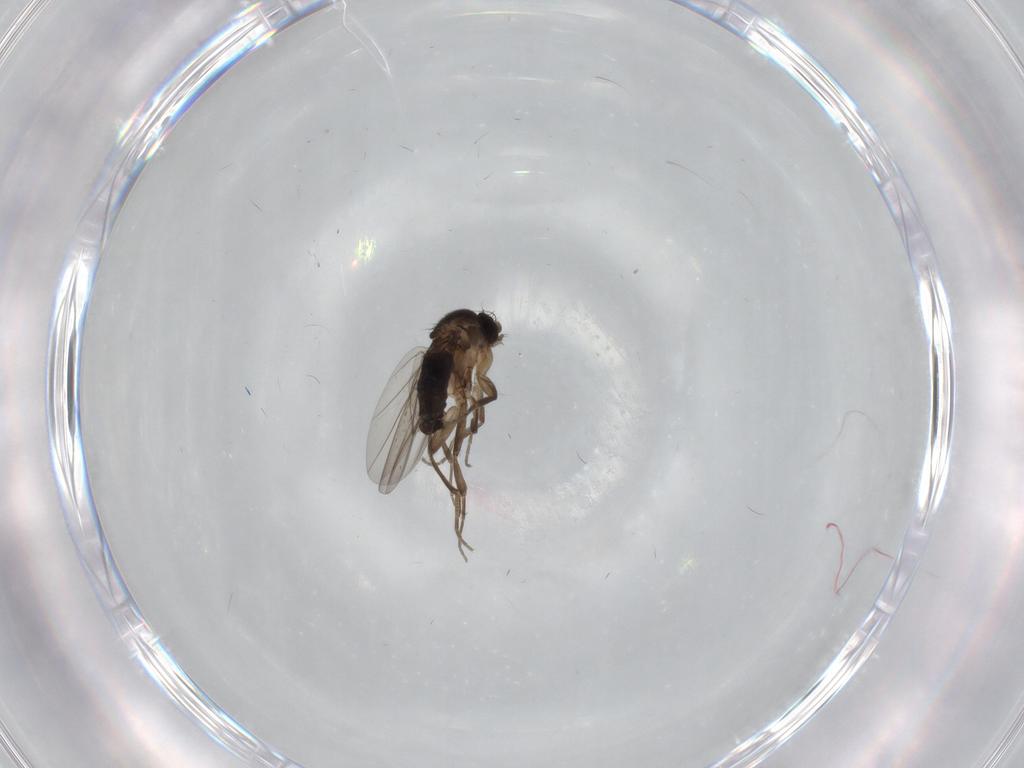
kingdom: Animalia
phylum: Arthropoda
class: Insecta
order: Diptera
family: Phoridae
